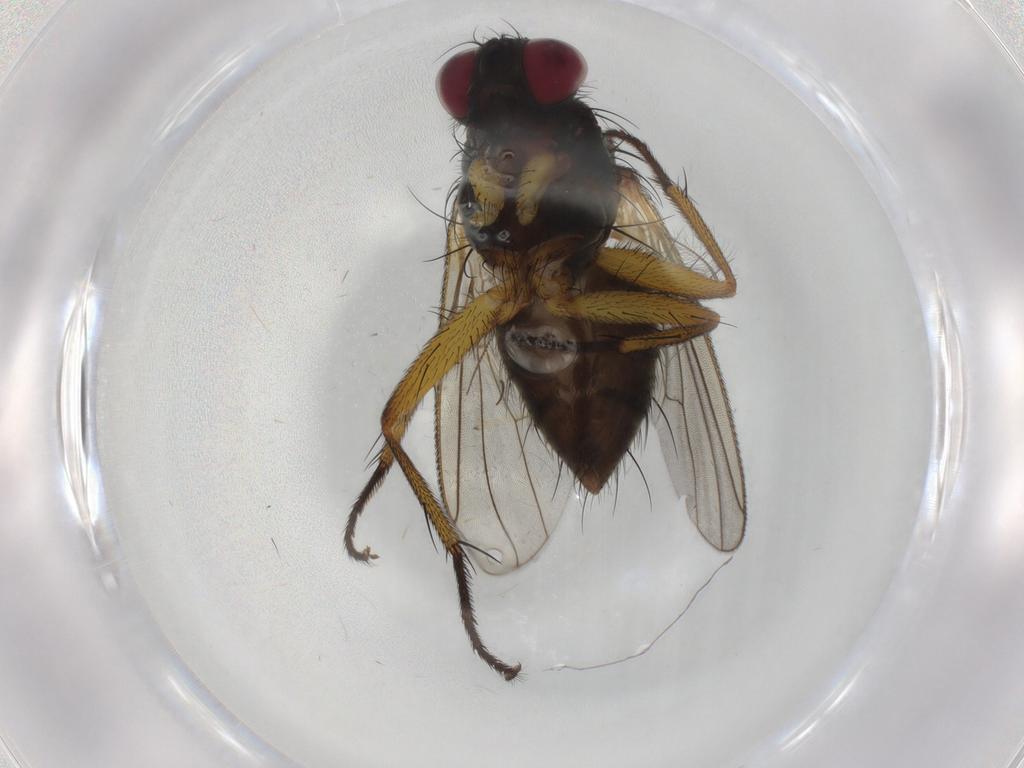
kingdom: Animalia
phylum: Arthropoda
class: Insecta
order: Diptera
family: Muscidae
